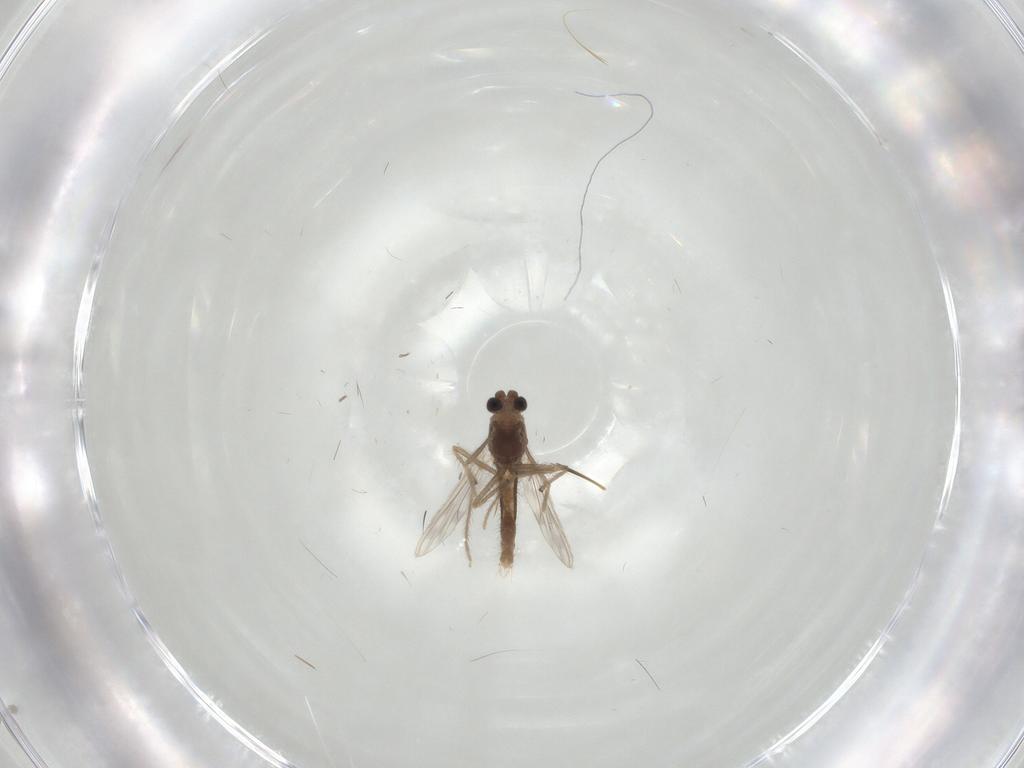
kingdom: Animalia
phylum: Arthropoda
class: Insecta
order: Diptera
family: Chironomidae
